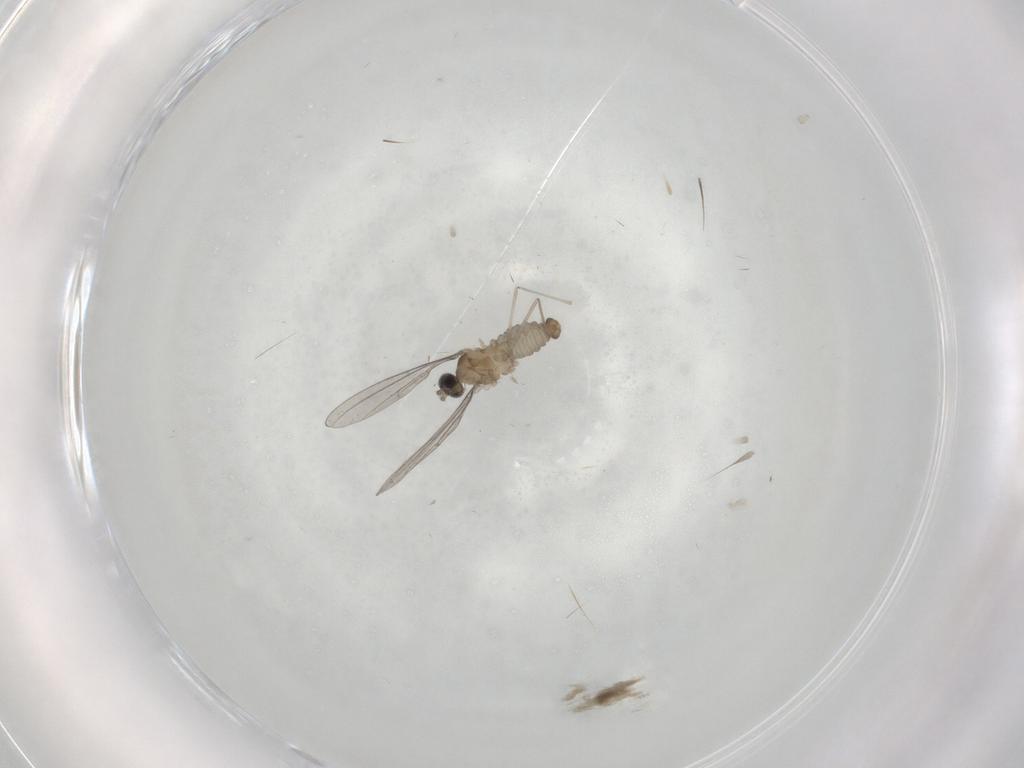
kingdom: Animalia
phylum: Arthropoda
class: Insecta
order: Diptera
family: Cecidomyiidae
